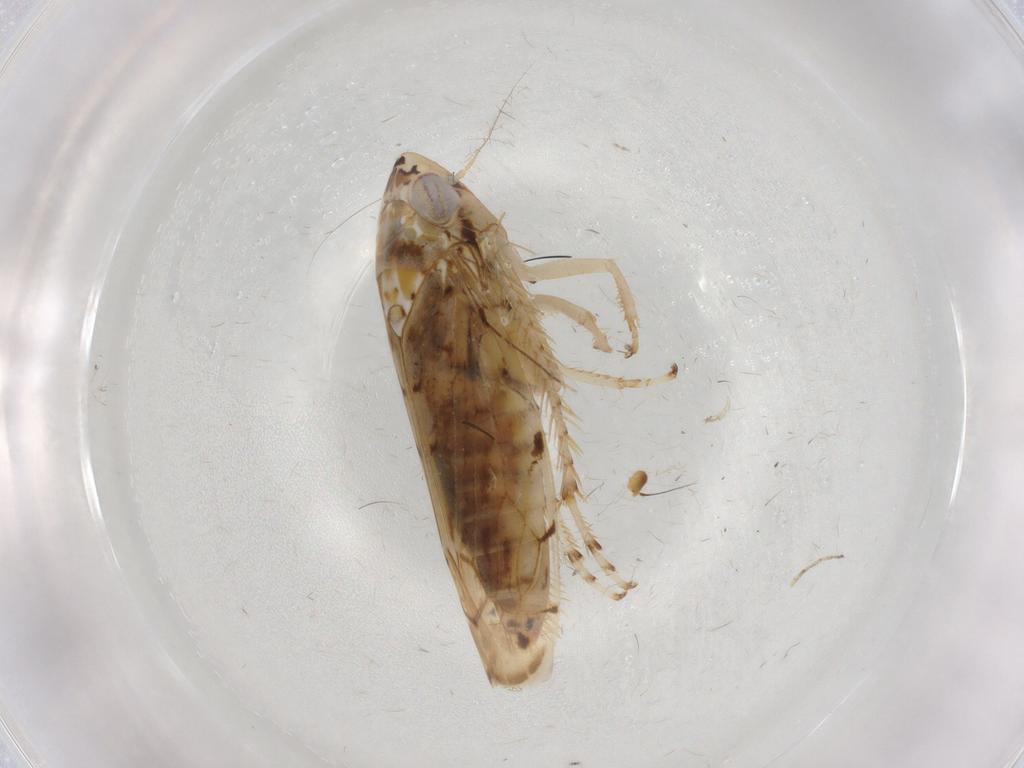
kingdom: Animalia
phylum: Arthropoda
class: Insecta
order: Hemiptera
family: Cicadellidae
